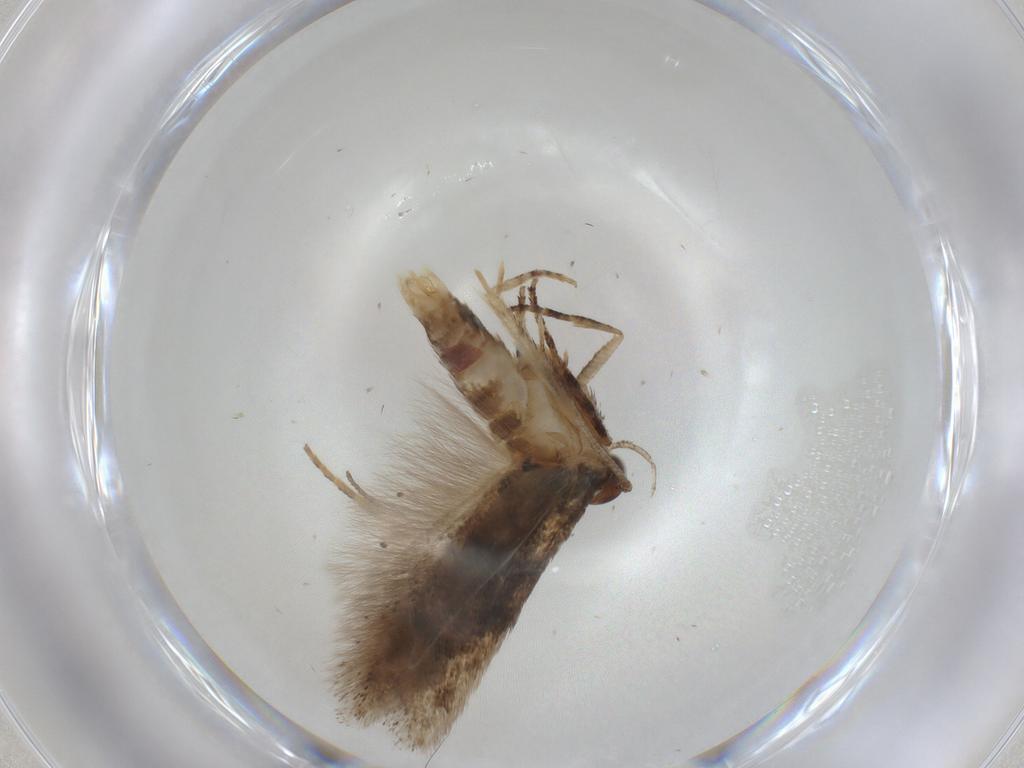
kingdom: Animalia
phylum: Arthropoda
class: Insecta
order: Lepidoptera
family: Gelechiidae
